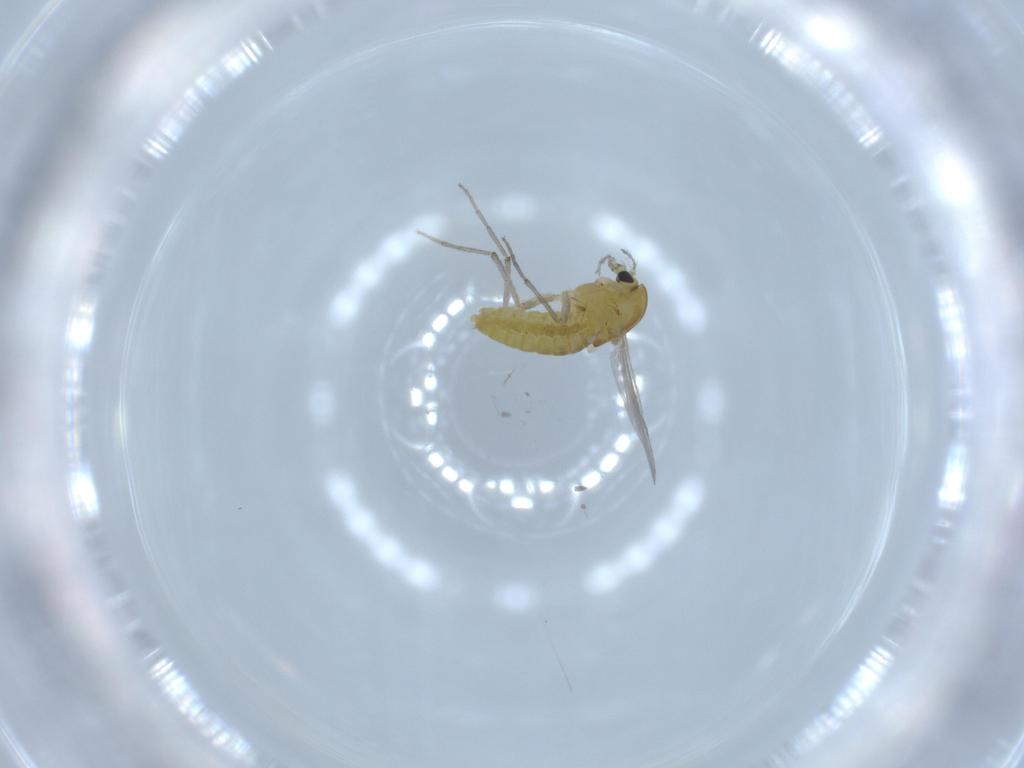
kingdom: Animalia
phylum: Arthropoda
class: Insecta
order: Diptera
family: Chironomidae
